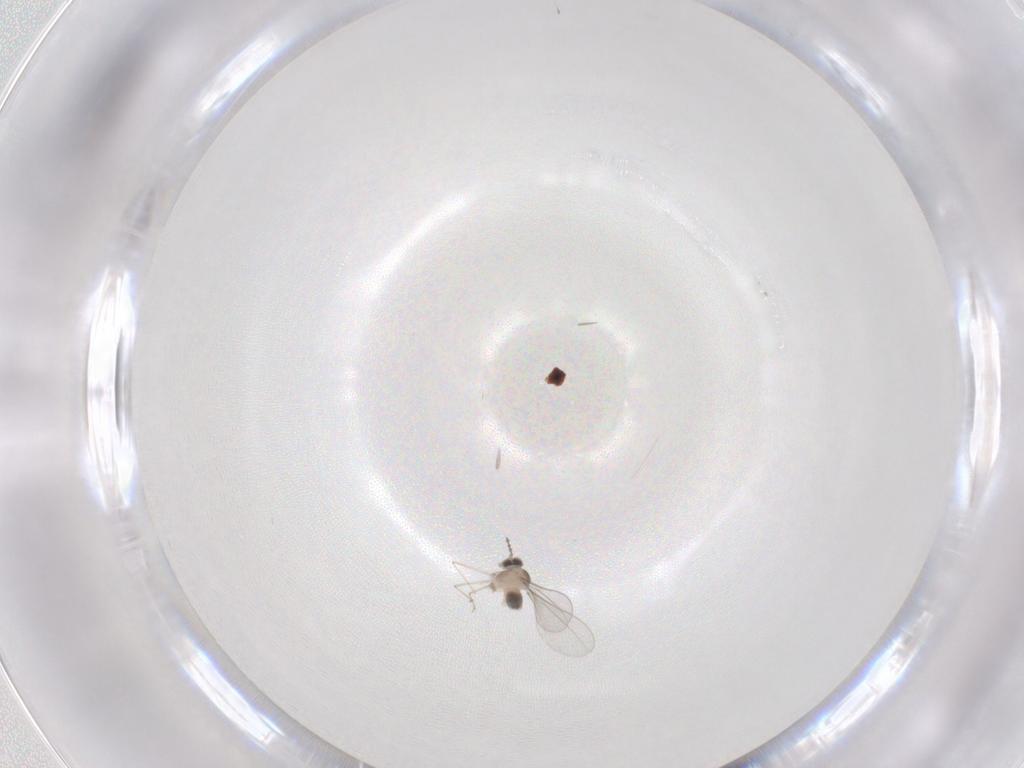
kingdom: Animalia
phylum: Arthropoda
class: Insecta
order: Diptera
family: Cecidomyiidae
